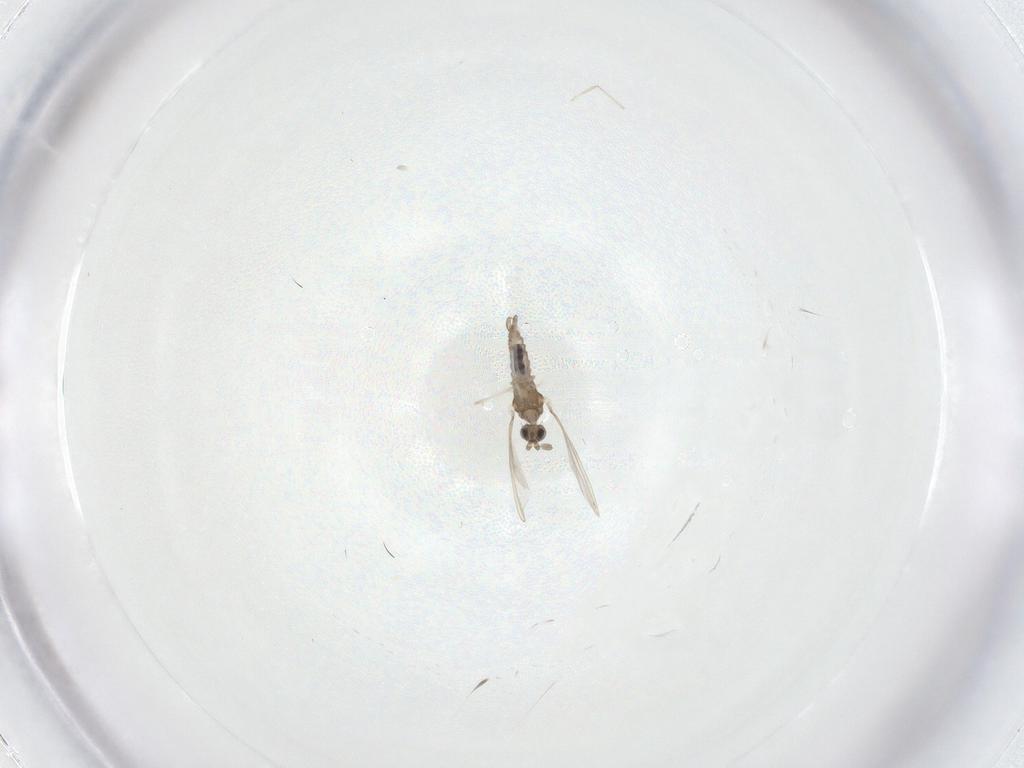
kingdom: Animalia
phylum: Arthropoda
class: Insecta
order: Diptera
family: Cecidomyiidae
